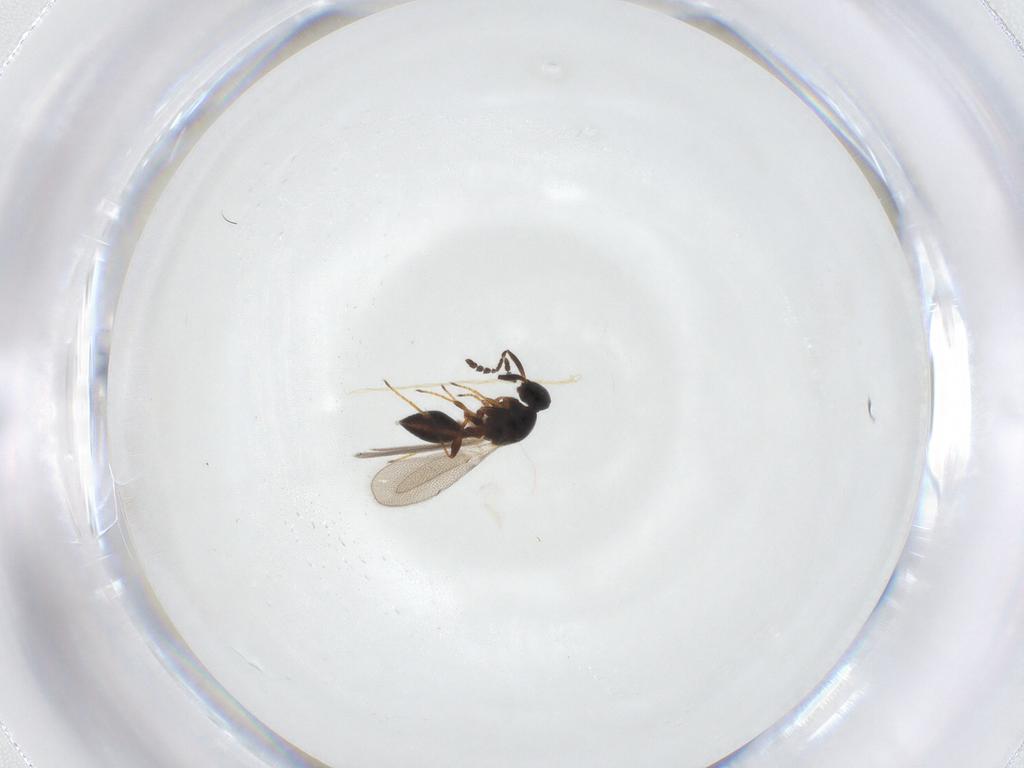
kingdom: Animalia
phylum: Arthropoda
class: Insecta
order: Hymenoptera
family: Platygastridae
